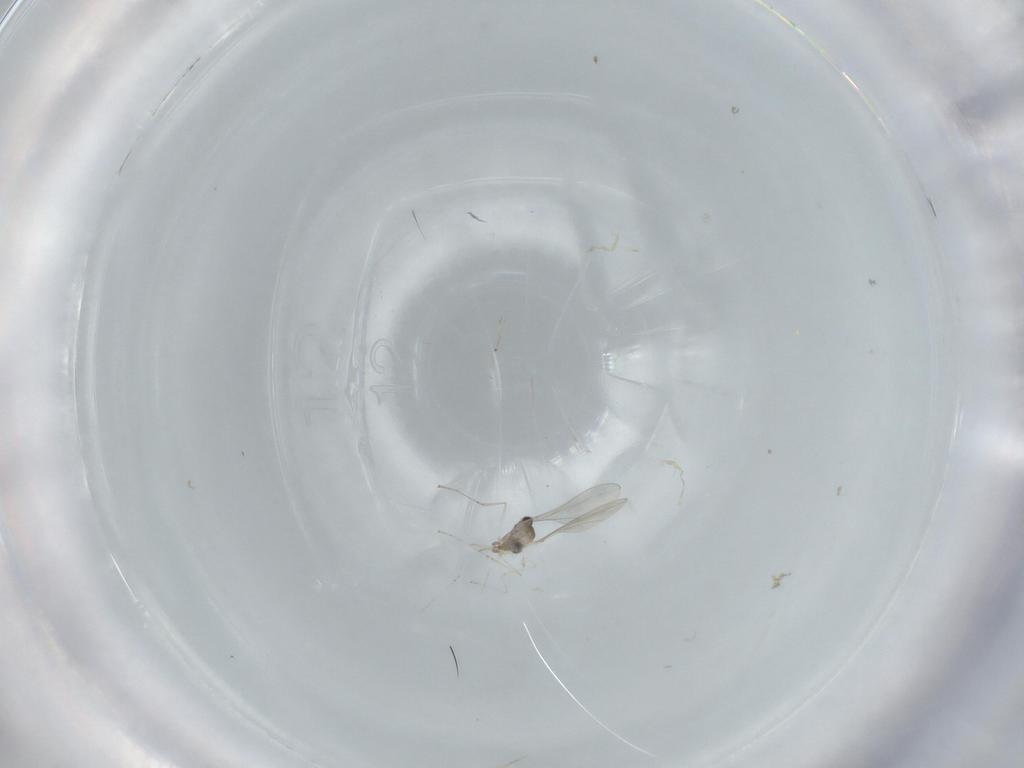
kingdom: Animalia
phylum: Arthropoda
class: Insecta
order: Diptera
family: Cecidomyiidae
